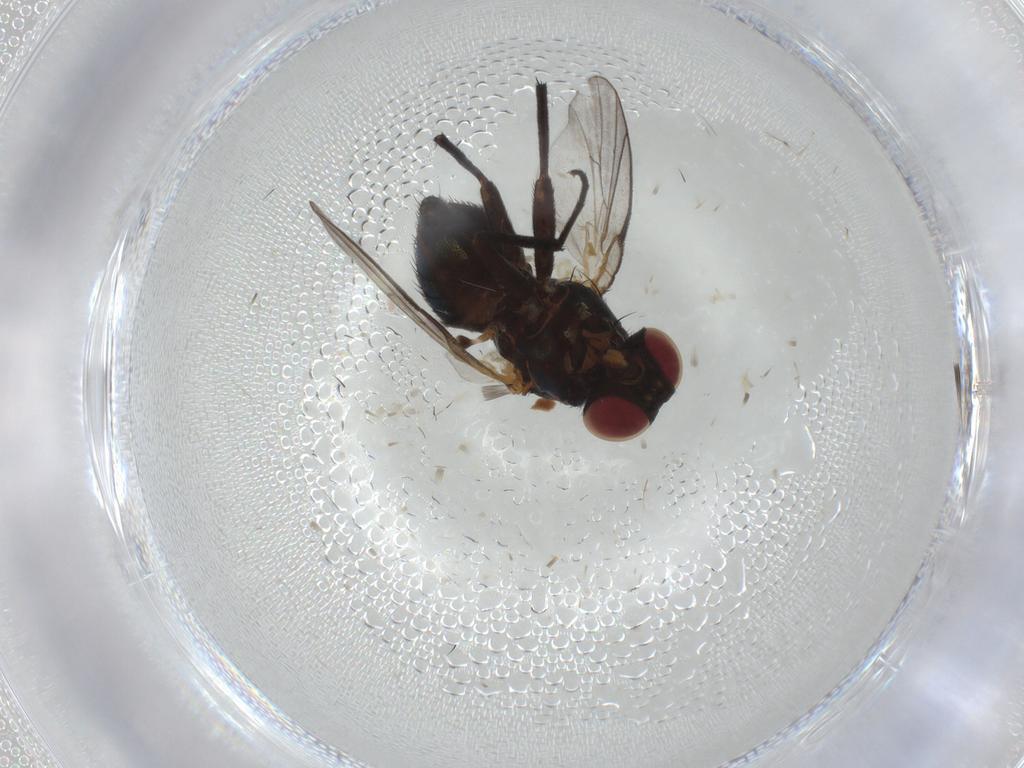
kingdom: Animalia
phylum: Arthropoda
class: Insecta
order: Diptera
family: Agromyzidae
